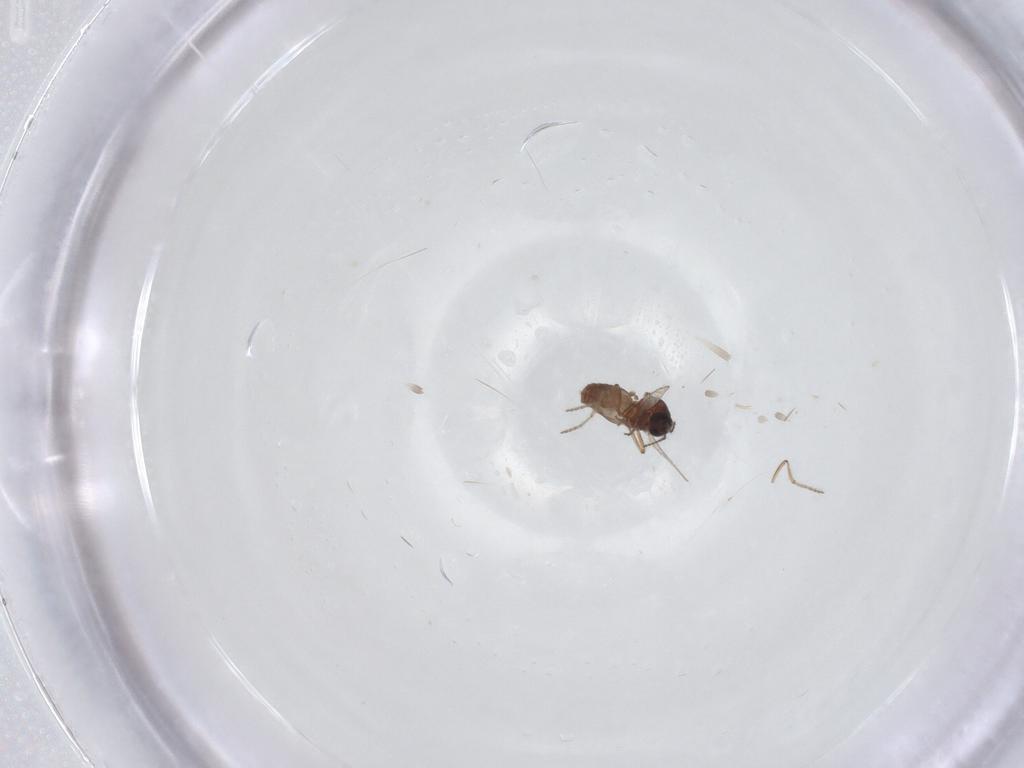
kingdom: Animalia
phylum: Arthropoda
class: Insecta
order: Diptera
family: Ceratopogonidae
